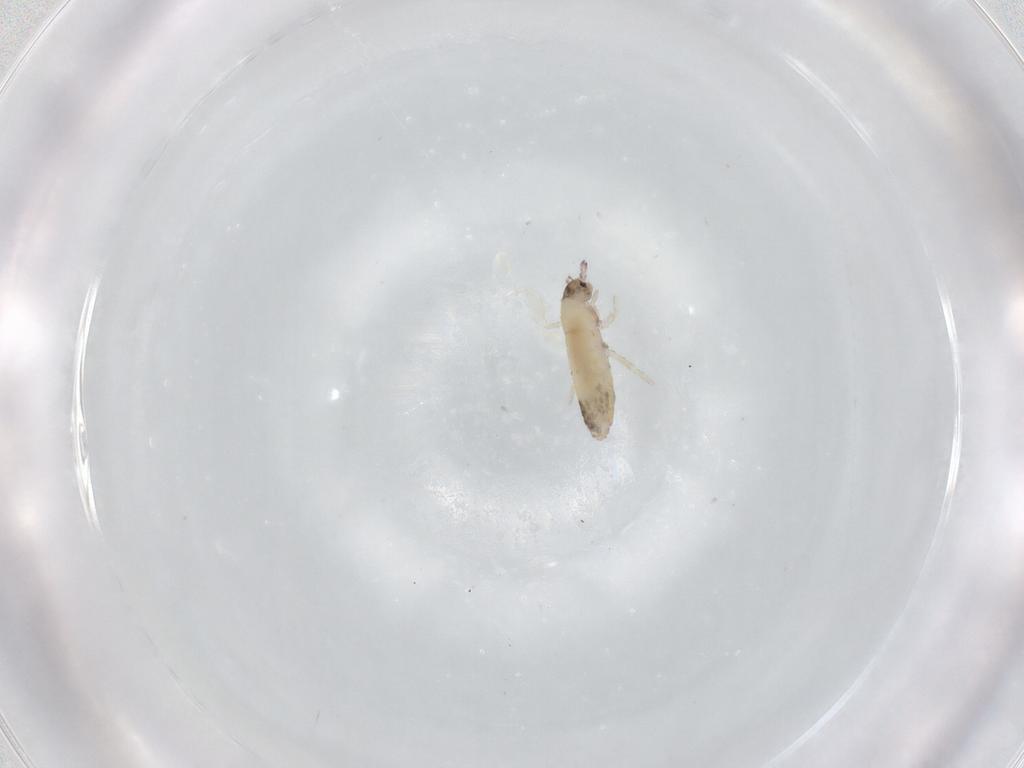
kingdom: Animalia
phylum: Arthropoda
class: Collembola
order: Entomobryomorpha
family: Entomobryidae
